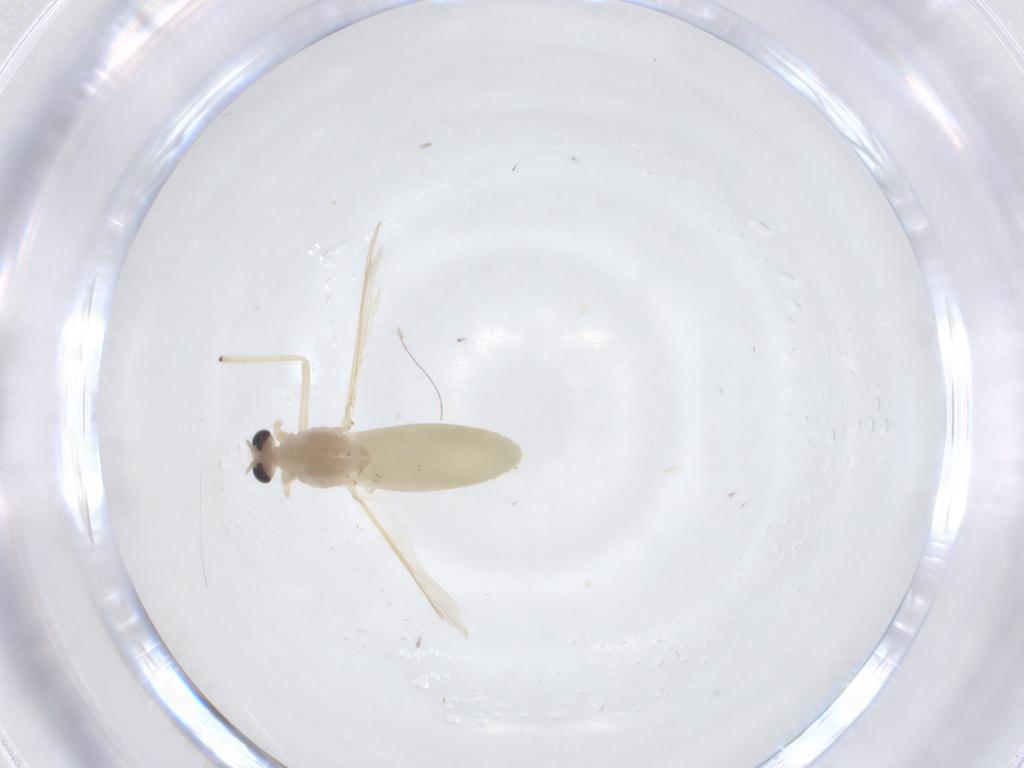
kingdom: Animalia
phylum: Arthropoda
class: Insecta
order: Diptera
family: Chironomidae
